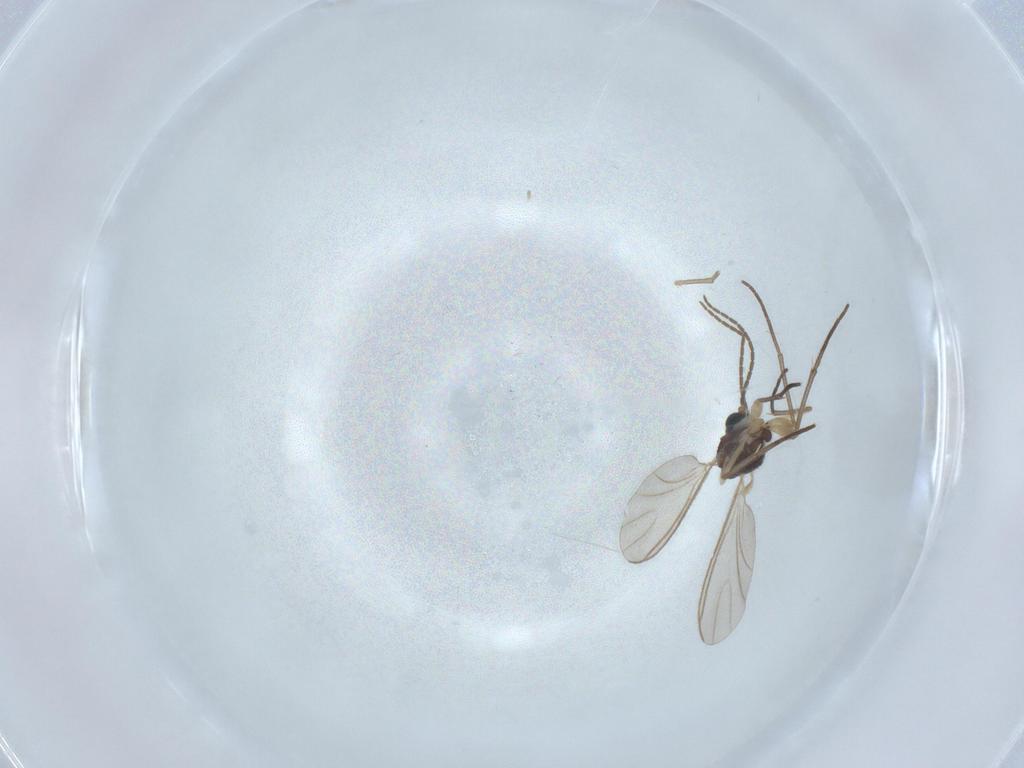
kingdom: Animalia
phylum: Arthropoda
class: Insecta
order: Diptera
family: Sciaridae
